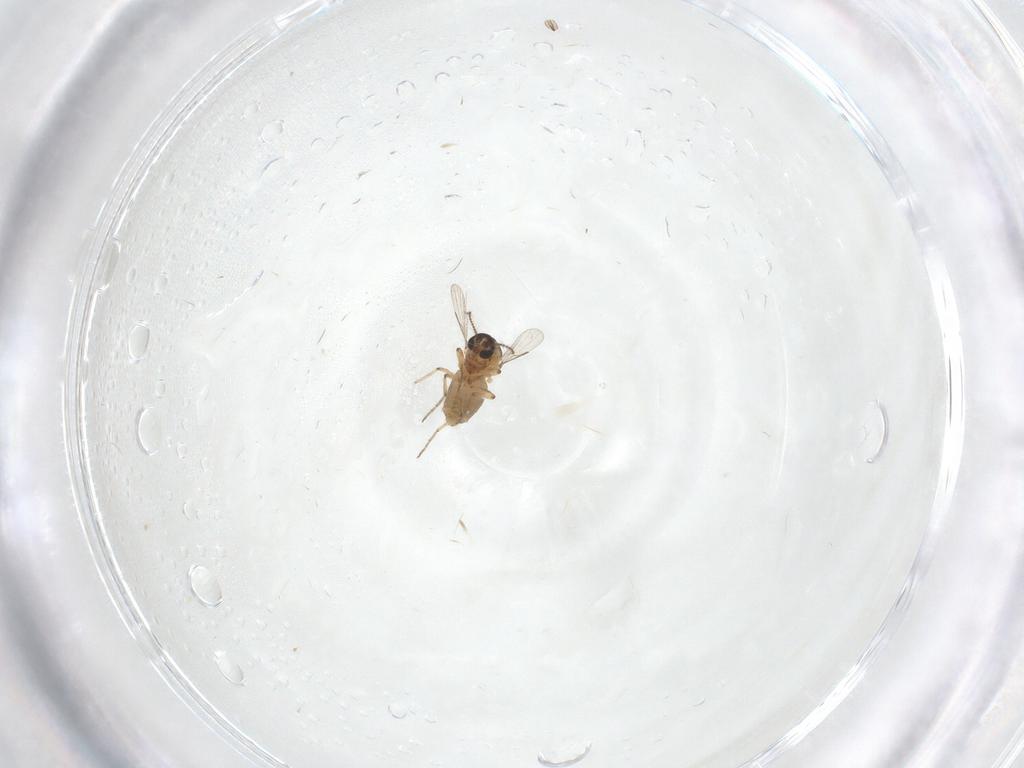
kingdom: Animalia
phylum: Arthropoda
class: Insecta
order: Diptera
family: Ceratopogonidae
